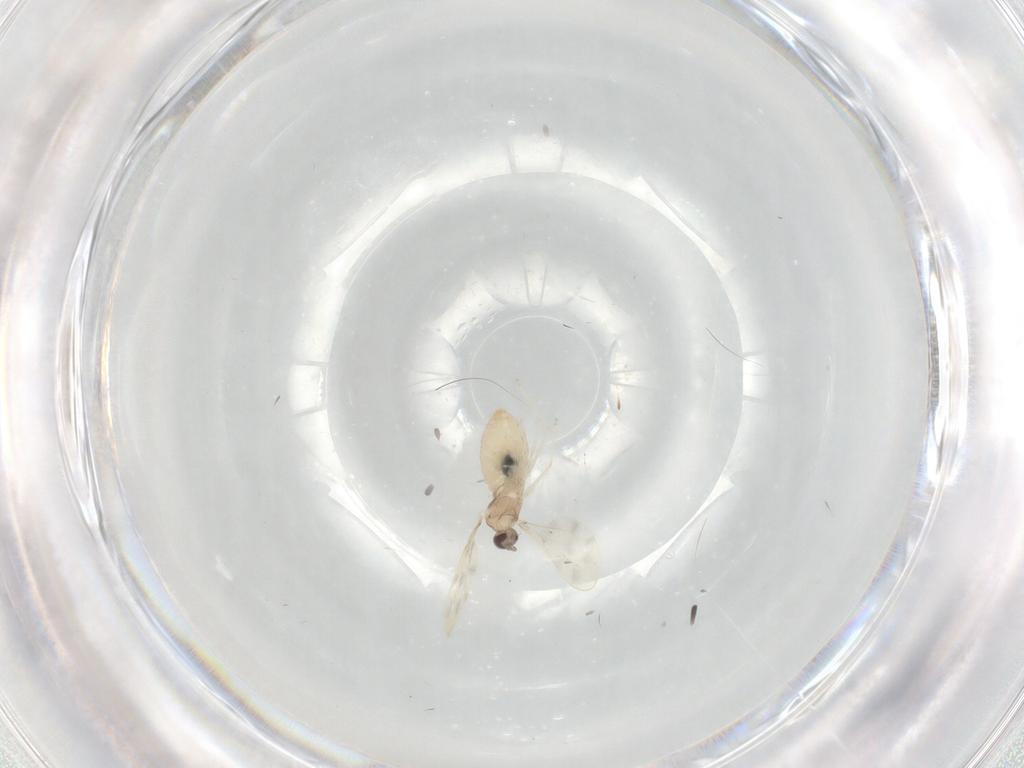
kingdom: Animalia
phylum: Arthropoda
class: Insecta
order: Diptera
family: Cecidomyiidae
